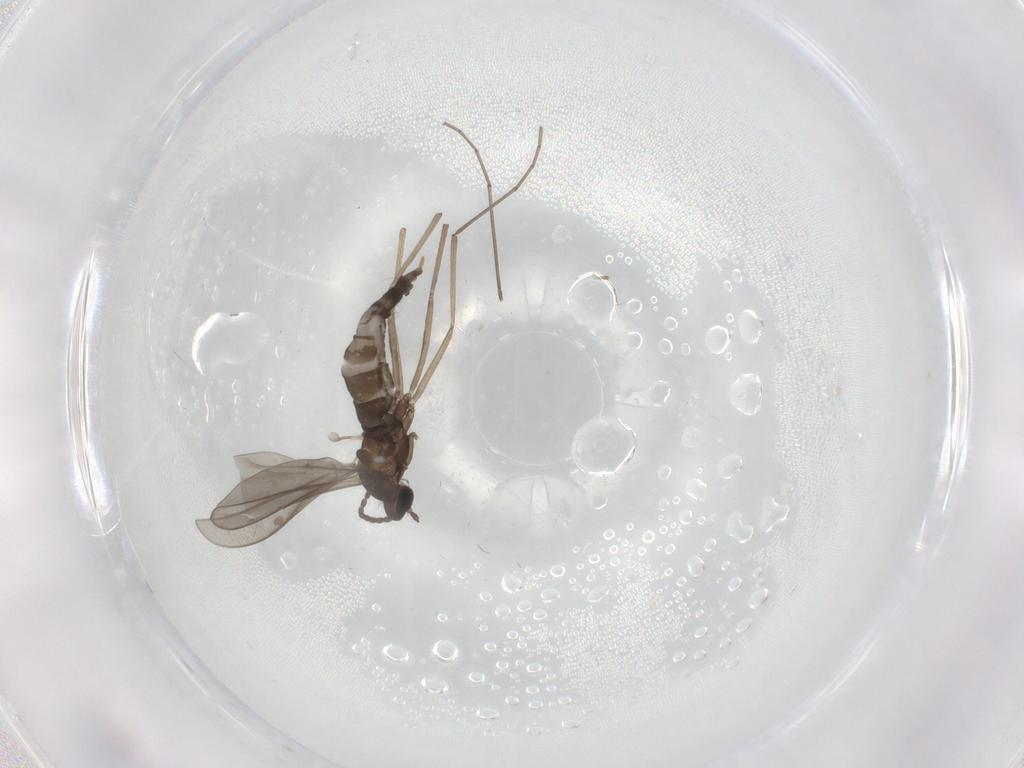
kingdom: Animalia
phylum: Arthropoda
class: Insecta
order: Diptera
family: Cecidomyiidae
